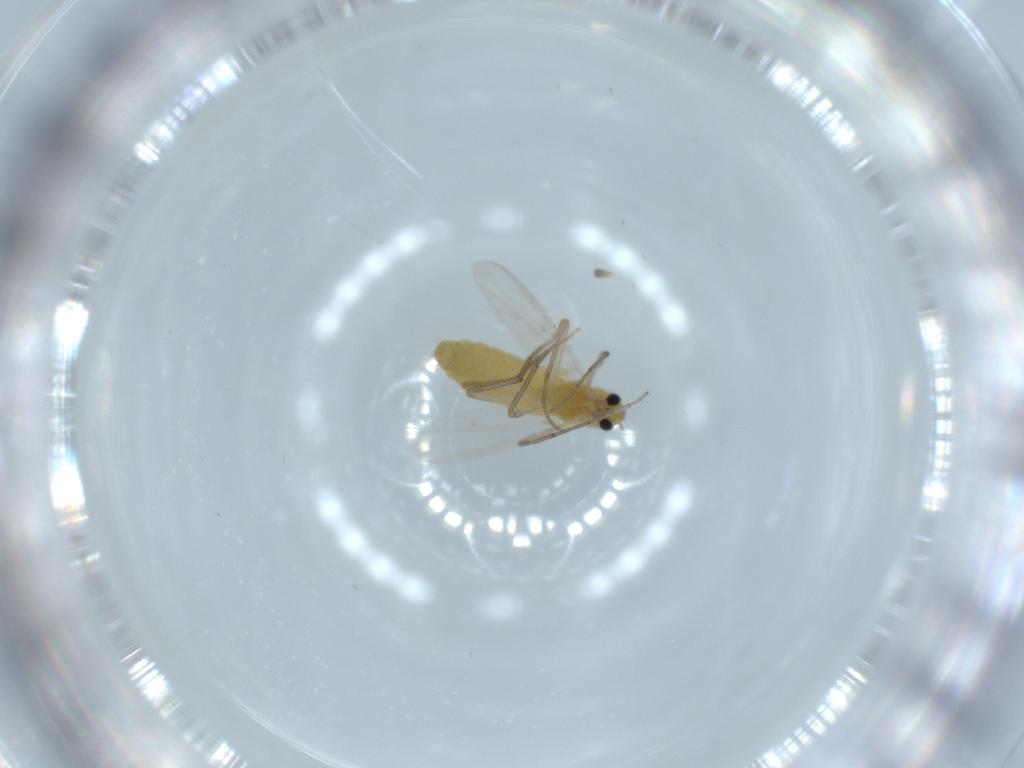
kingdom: Animalia
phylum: Arthropoda
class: Insecta
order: Diptera
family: Chironomidae
